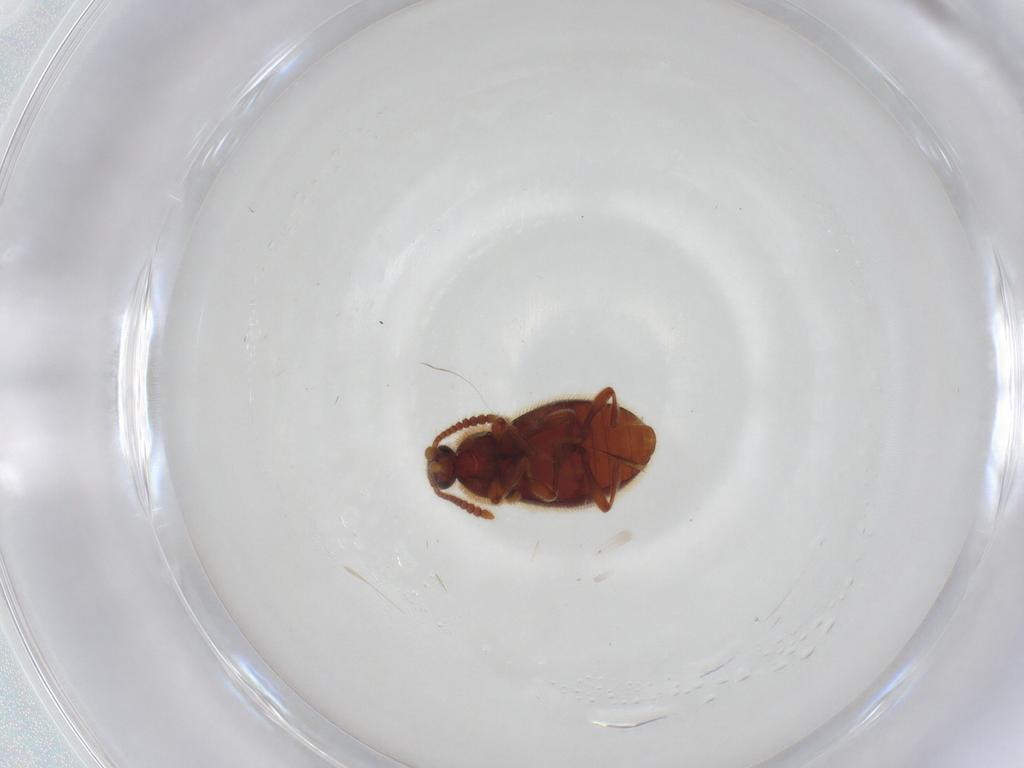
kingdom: Animalia
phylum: Arthropoda
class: Insecta
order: Coleoptera
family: Staphylinidae
